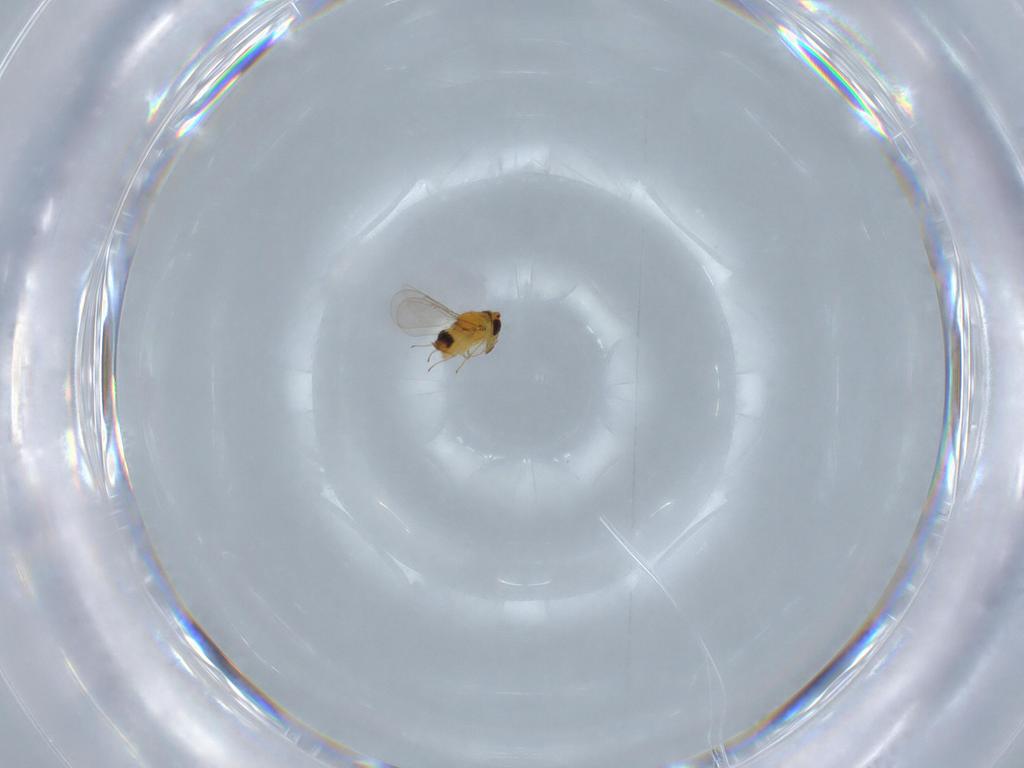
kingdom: Animalia
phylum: Arthropoda
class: Insecta
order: Hymenoptera
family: Aphelinidae
